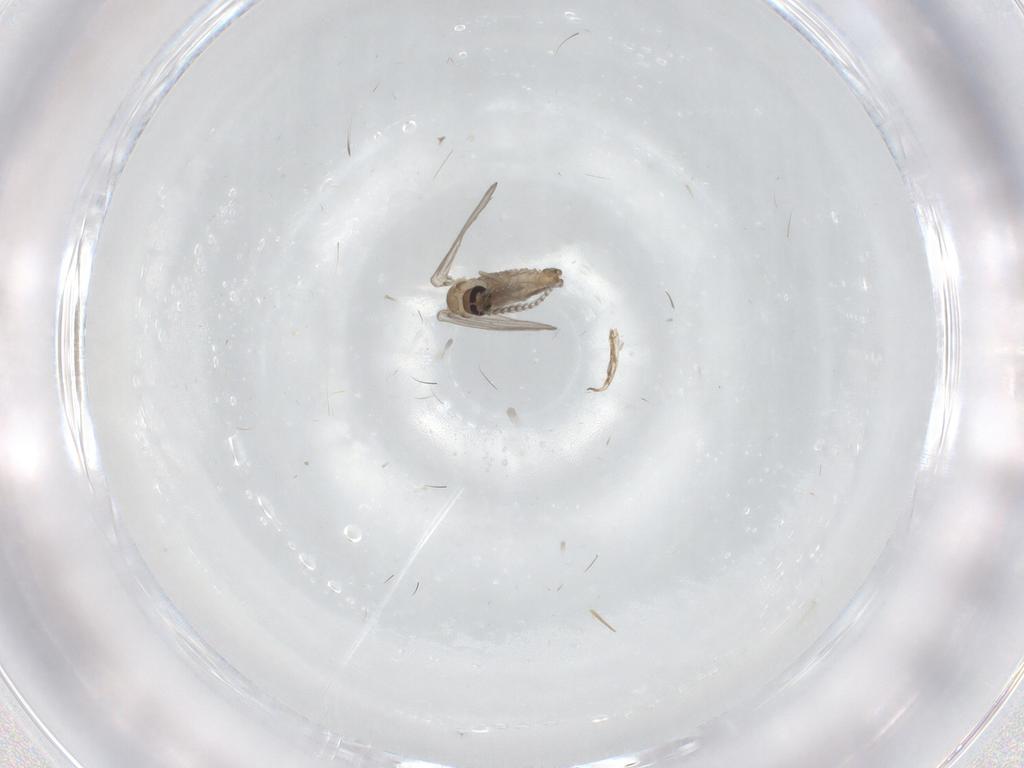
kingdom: Animalia
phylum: Arthropoda
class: Insecta
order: Diptera
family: Psychodidae
